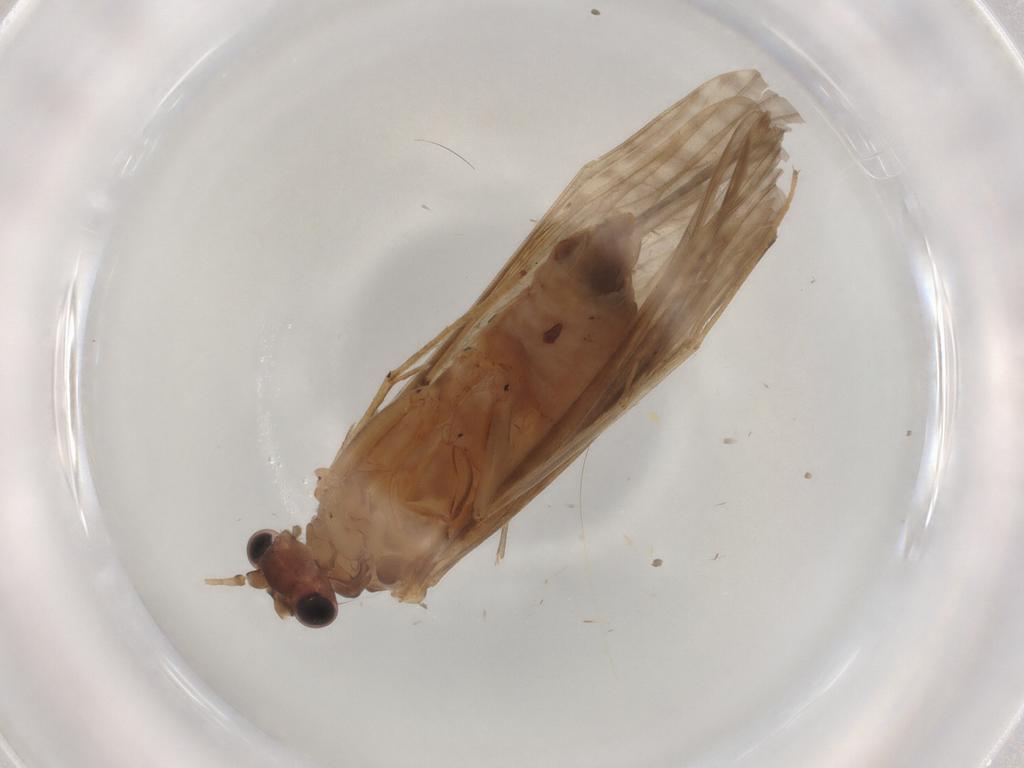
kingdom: Animalia
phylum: Arthropoda
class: Insecta
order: Trichoptera
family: Hydropsychidae
